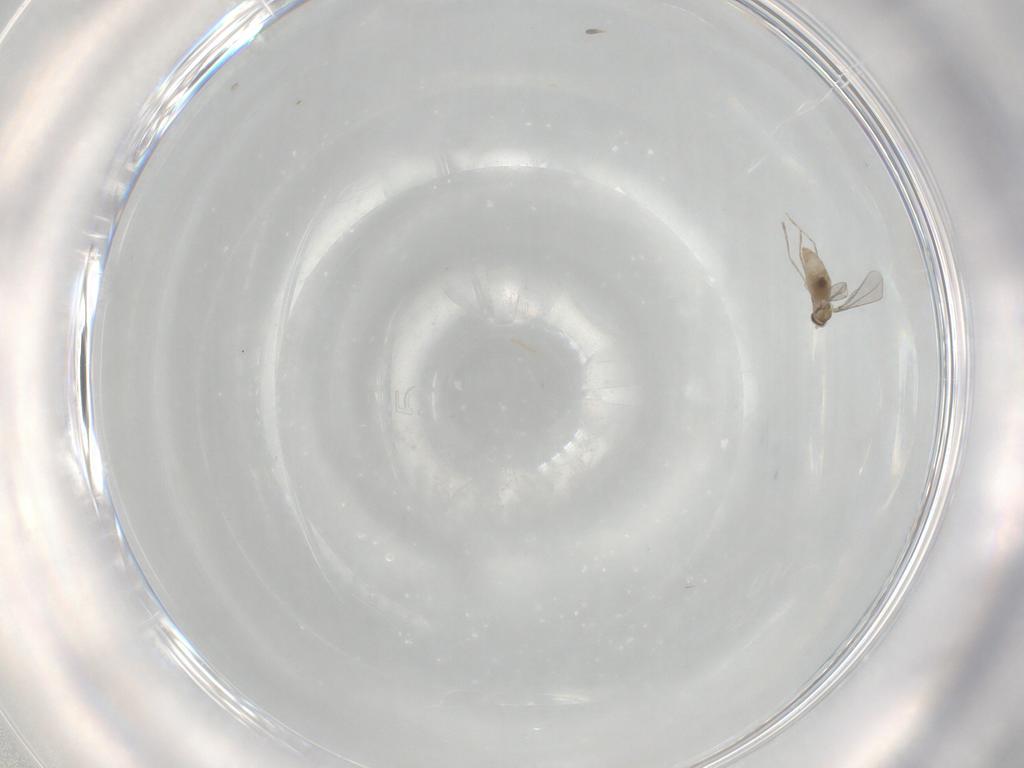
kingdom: Animalia
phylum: Arthropoda
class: Insecta
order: Diptera
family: Cecidomyiidae
